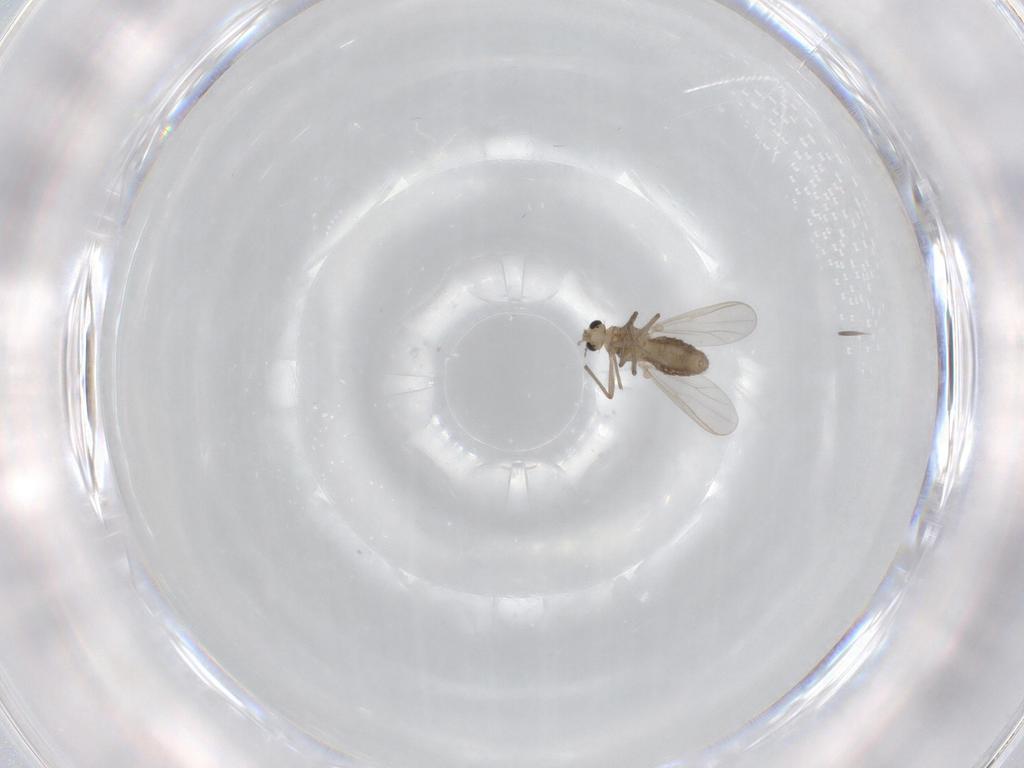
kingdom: Animalia
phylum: Arthropoda
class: Insecta
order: Diptera
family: Chironomidae
